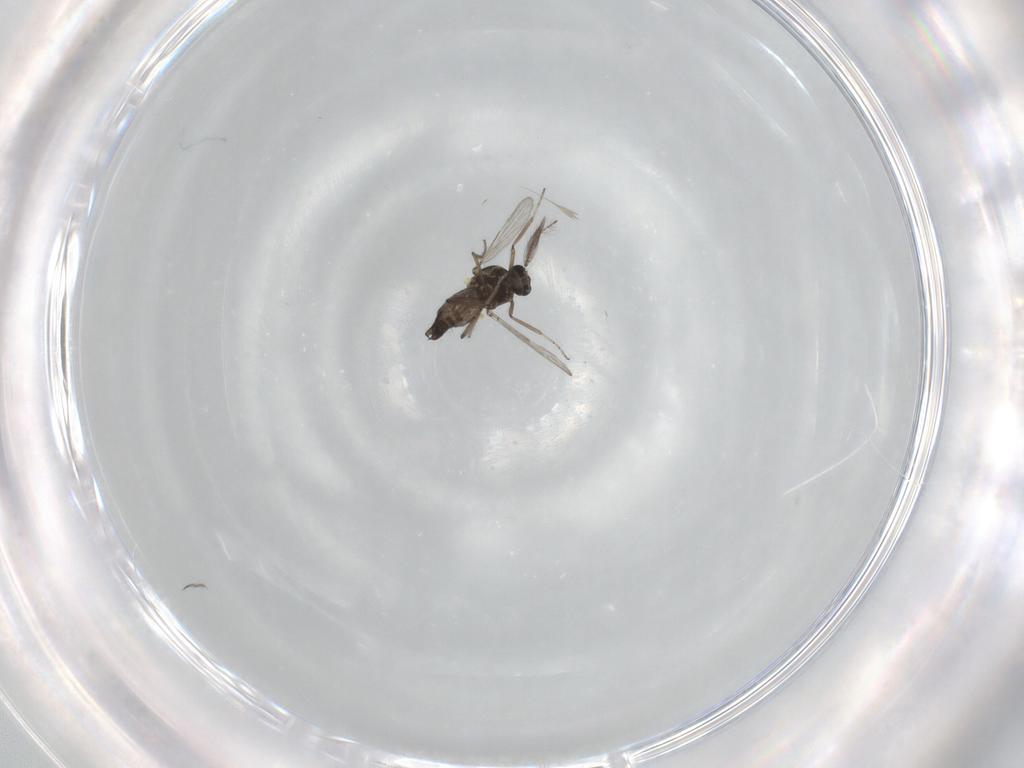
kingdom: Animalia
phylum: Arthropoda
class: Insecta
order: Diptera
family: Ceratopogonidae
